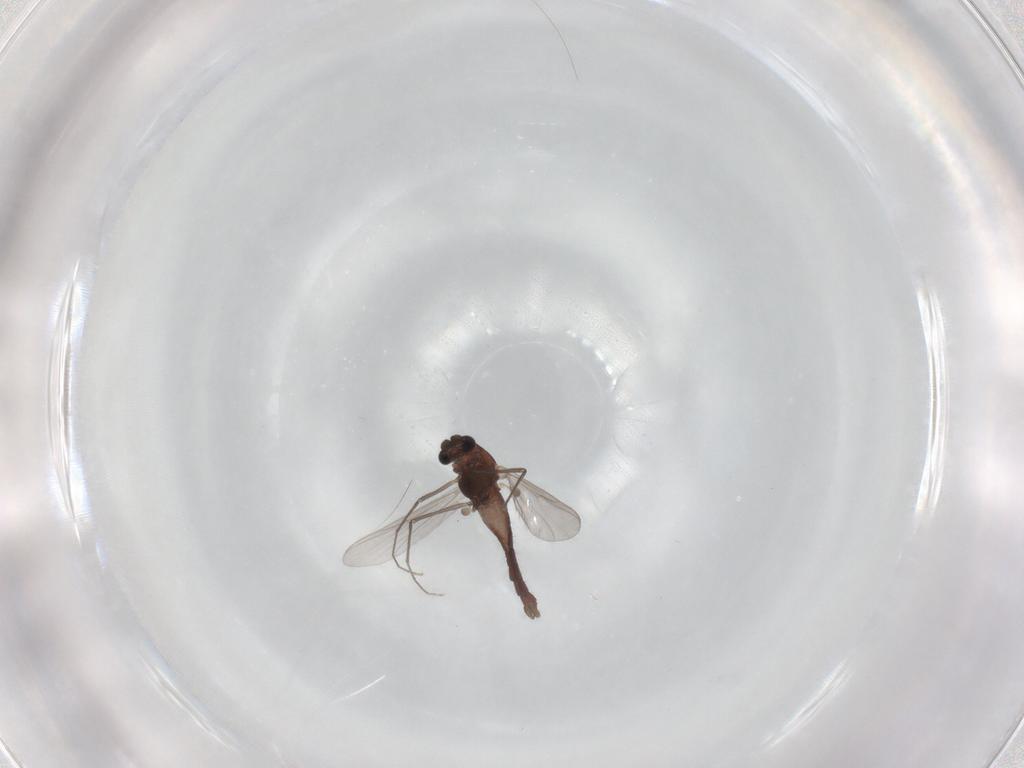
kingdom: Animalia
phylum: Arthropoda
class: Insecta
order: Diptera
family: Chironomidae
